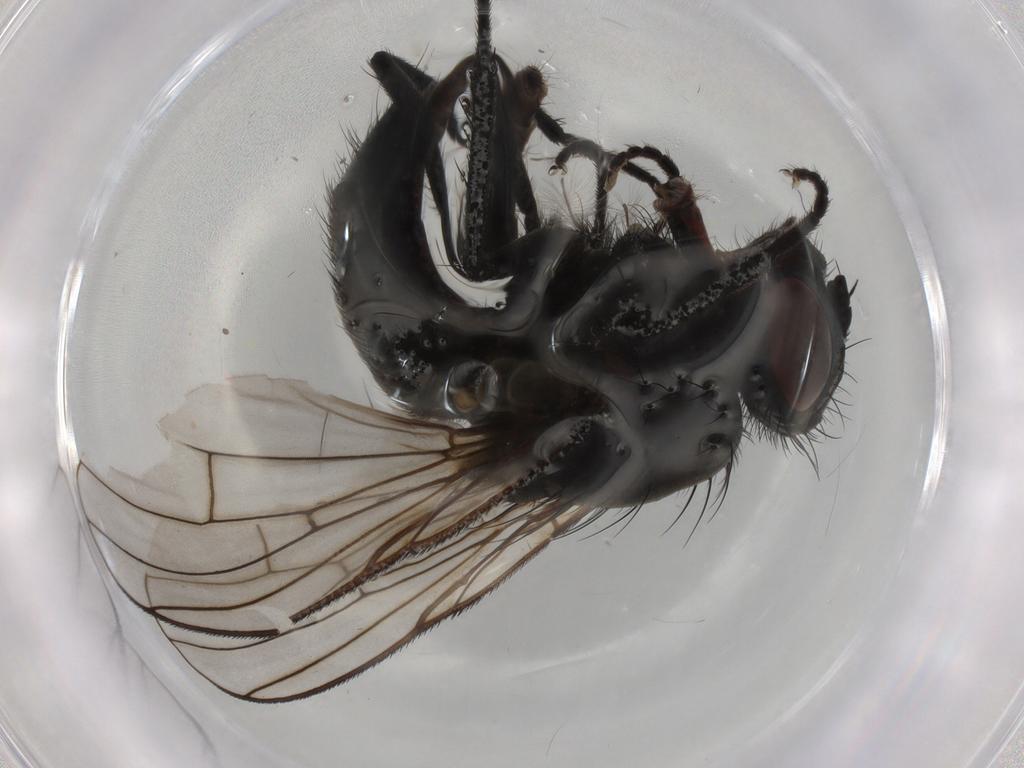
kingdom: Animalia
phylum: Arthropoda
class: Insecta
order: Diptera
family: Muscidae
